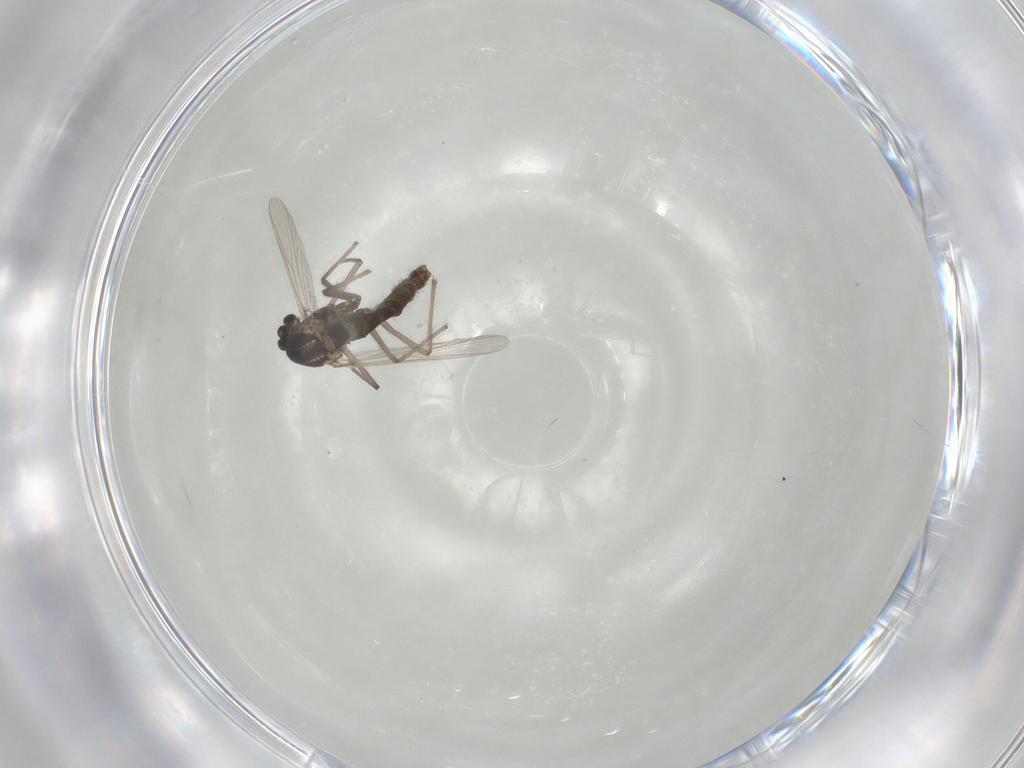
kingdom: Animalia
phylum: Arthropoda
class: Insecta
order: Diptera
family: Chironomidae
